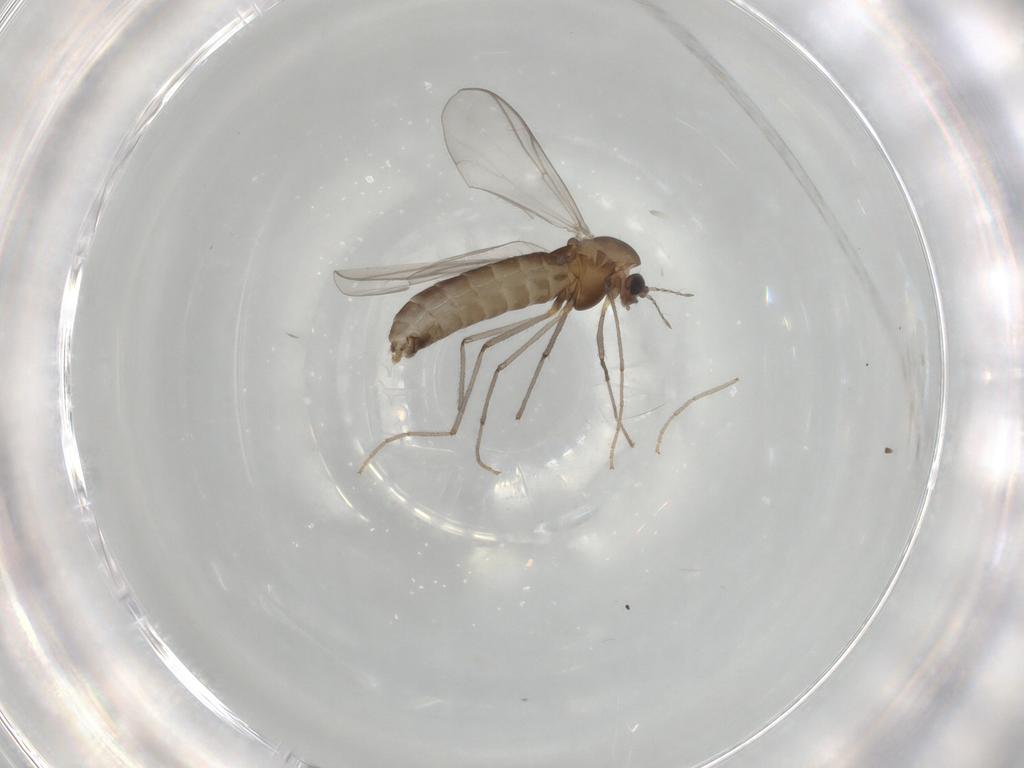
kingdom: Animalia
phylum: Arthropoda
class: Insecta
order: Diptera
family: Chironomidae
